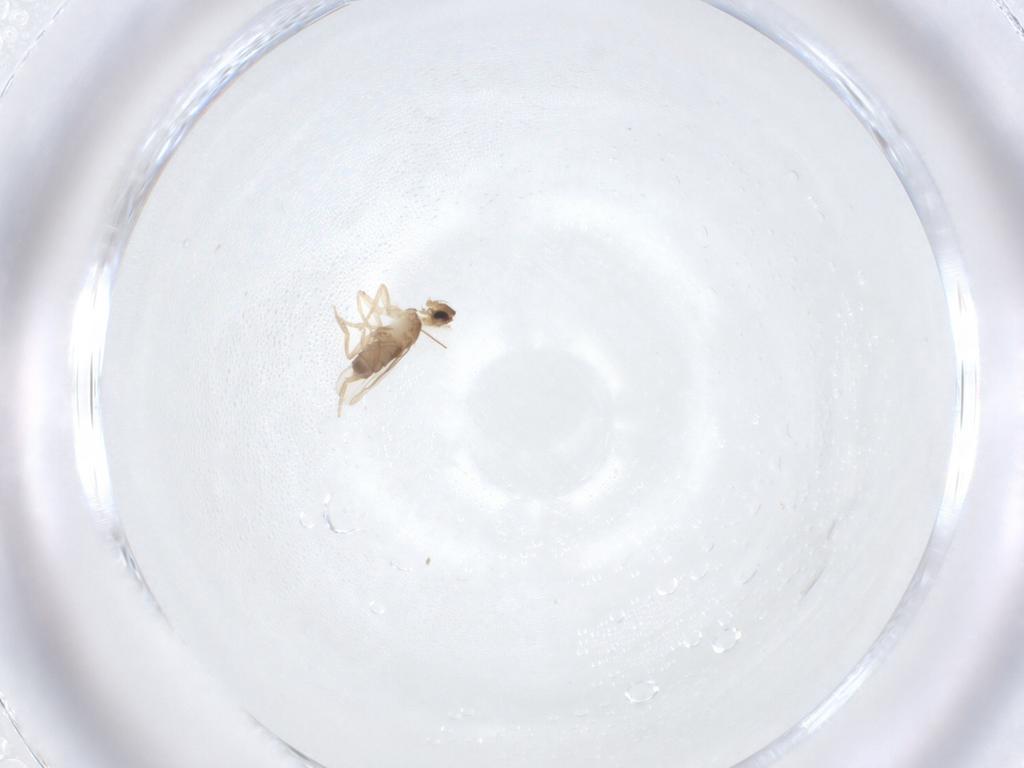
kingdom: Animalia
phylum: Arthropoda
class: Insecta
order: Diptera
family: Phoridae
